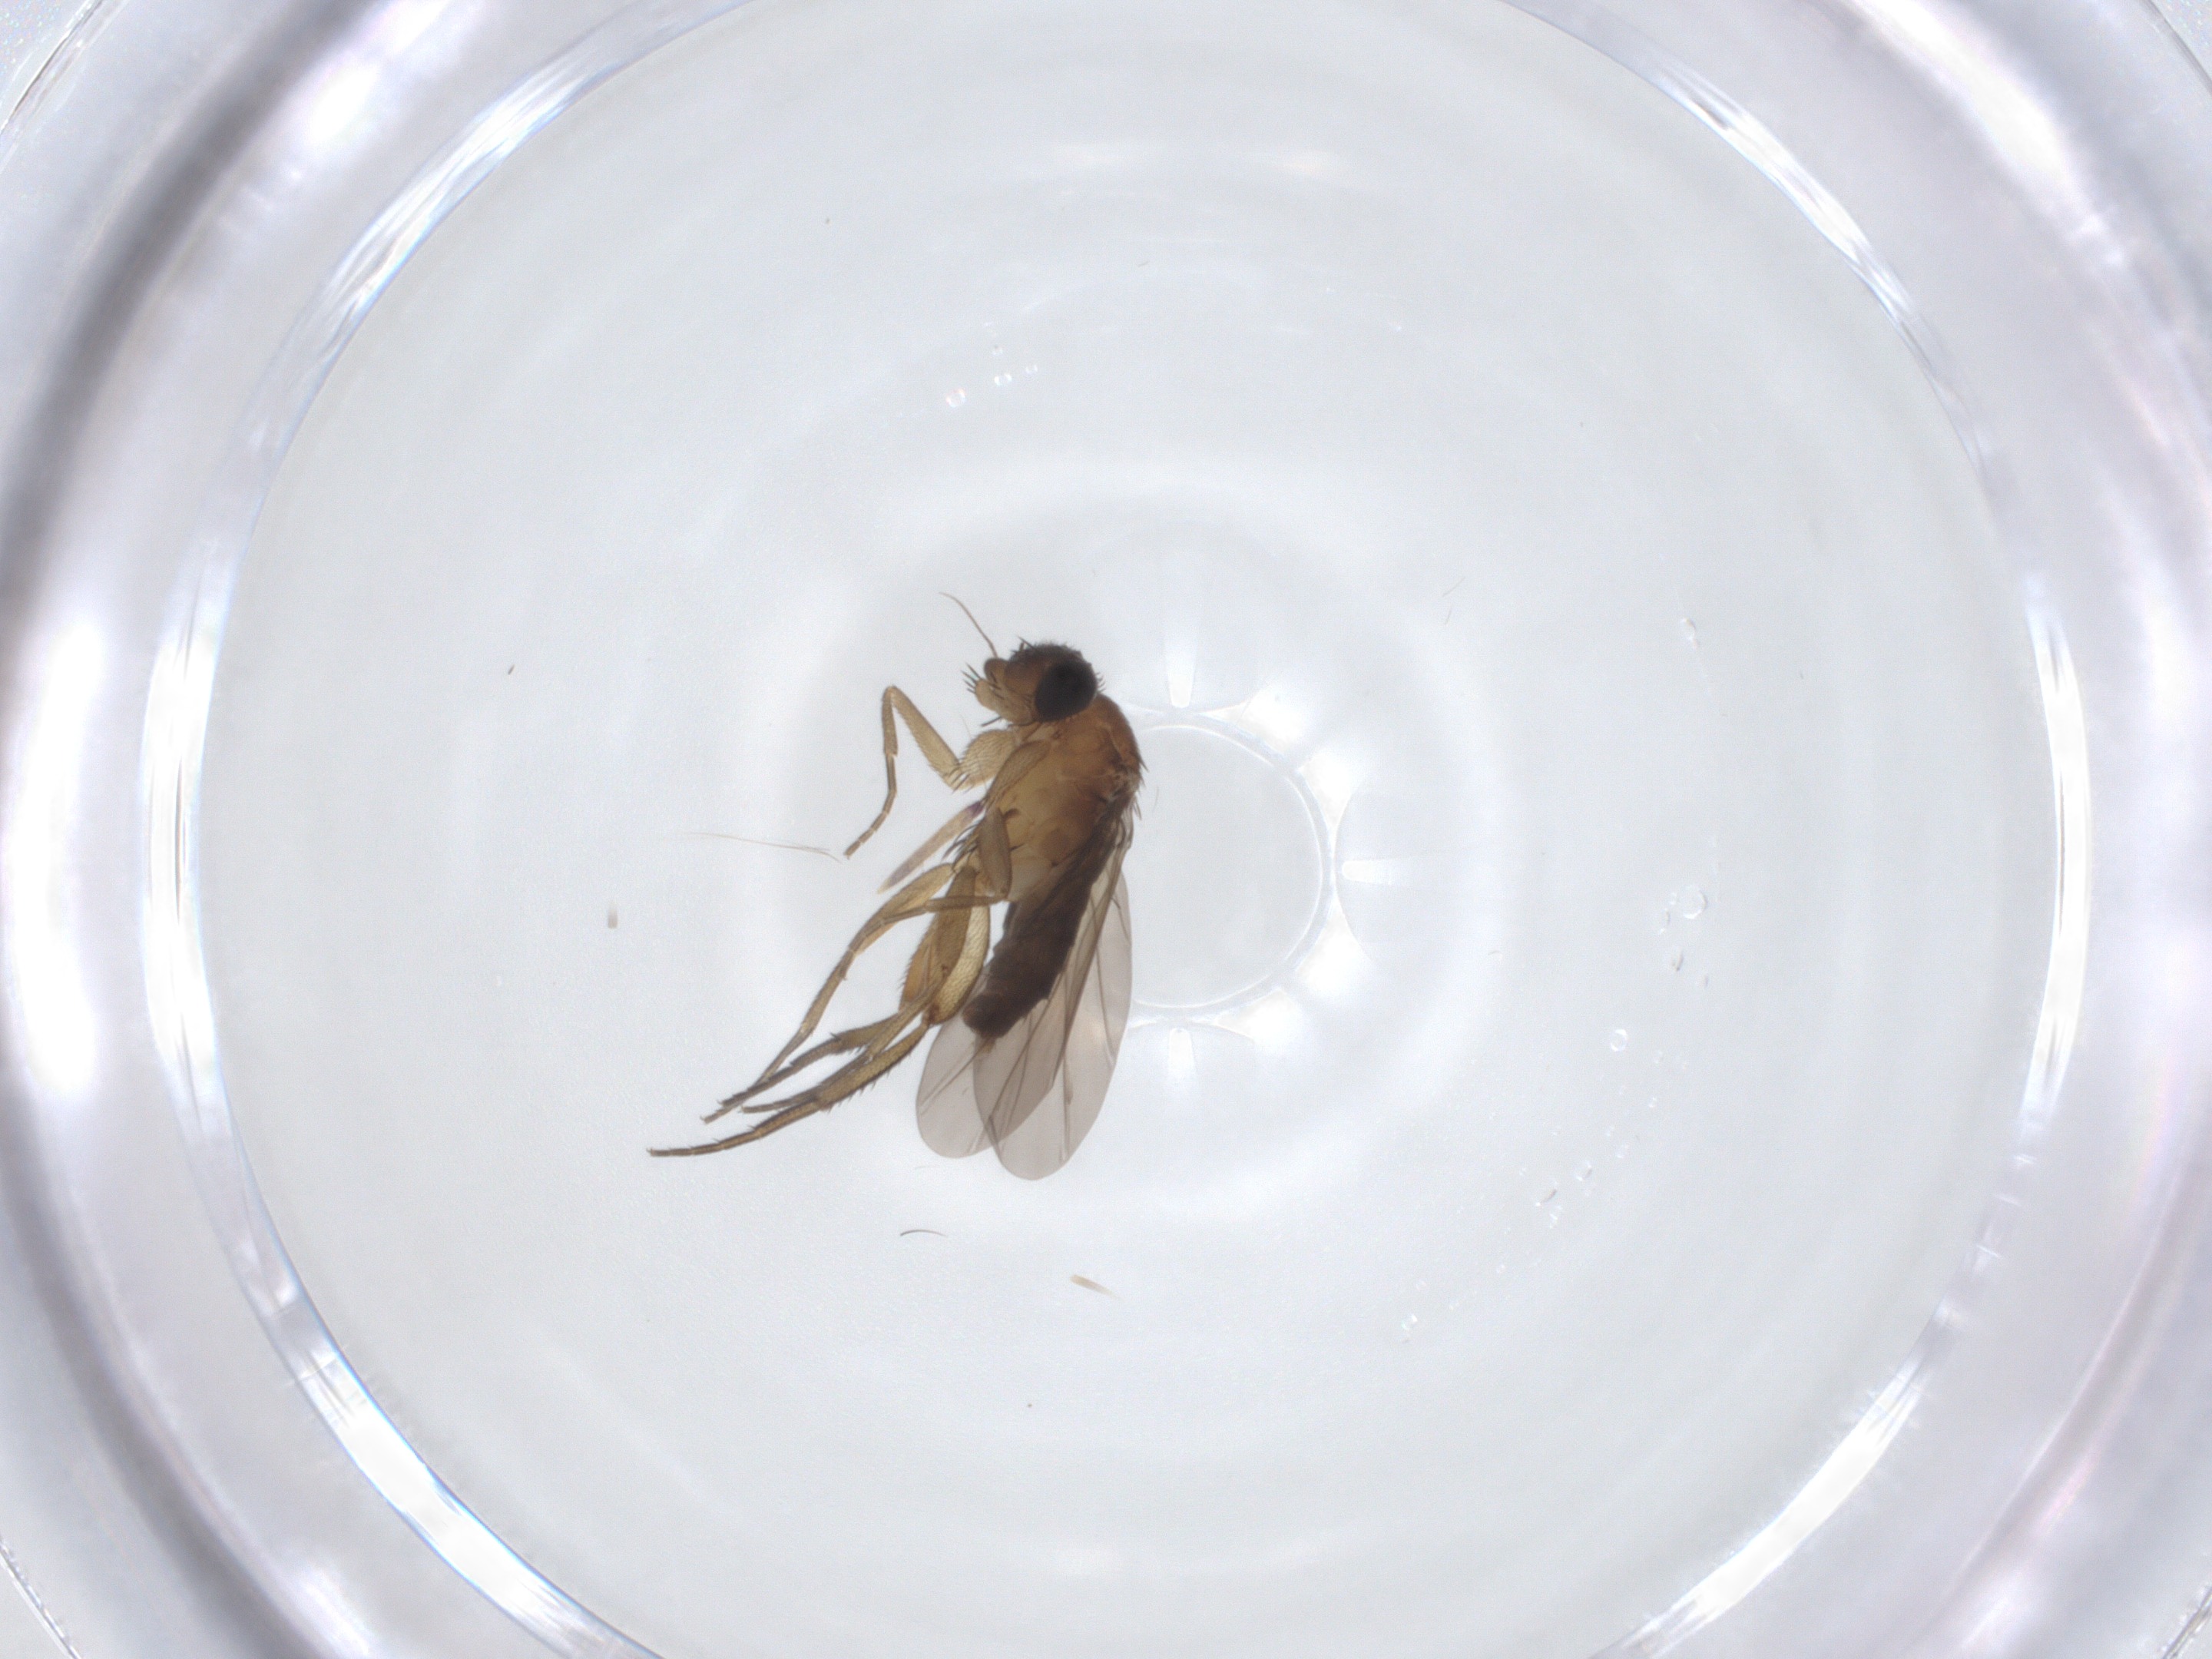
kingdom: Animalia
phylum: Arthropoda
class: Insecta
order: Diptera
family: Phoridae
